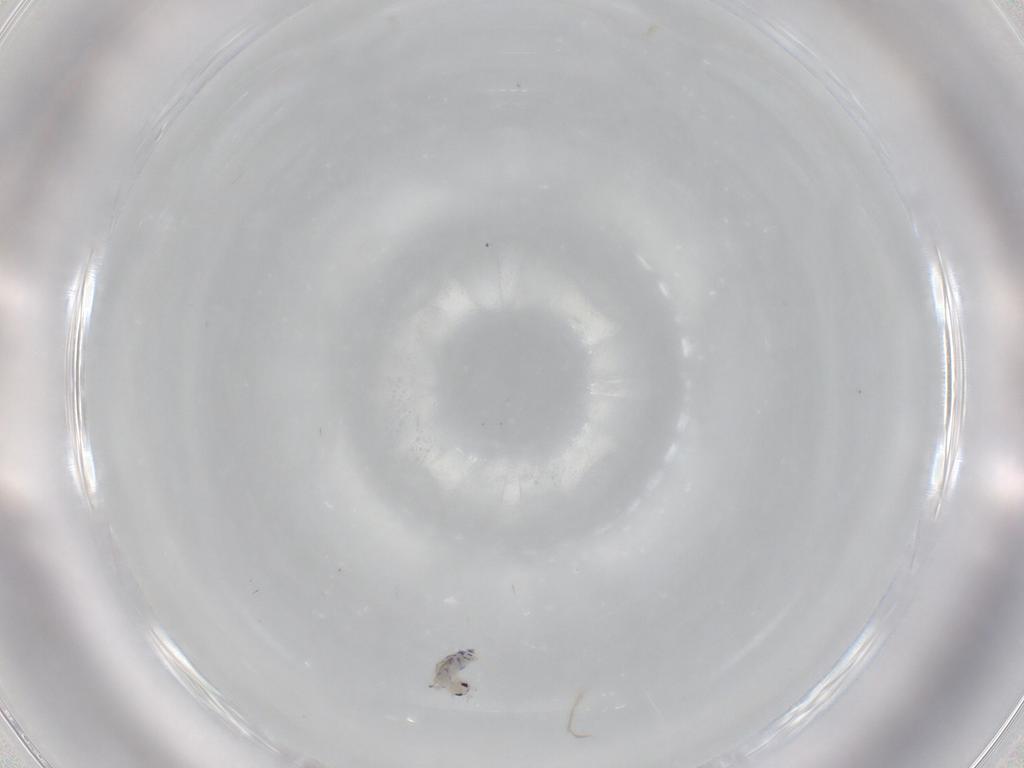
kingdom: Animalia
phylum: Arthropoda
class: Collembola
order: Entomobryomorpha
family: Entomobryidae
